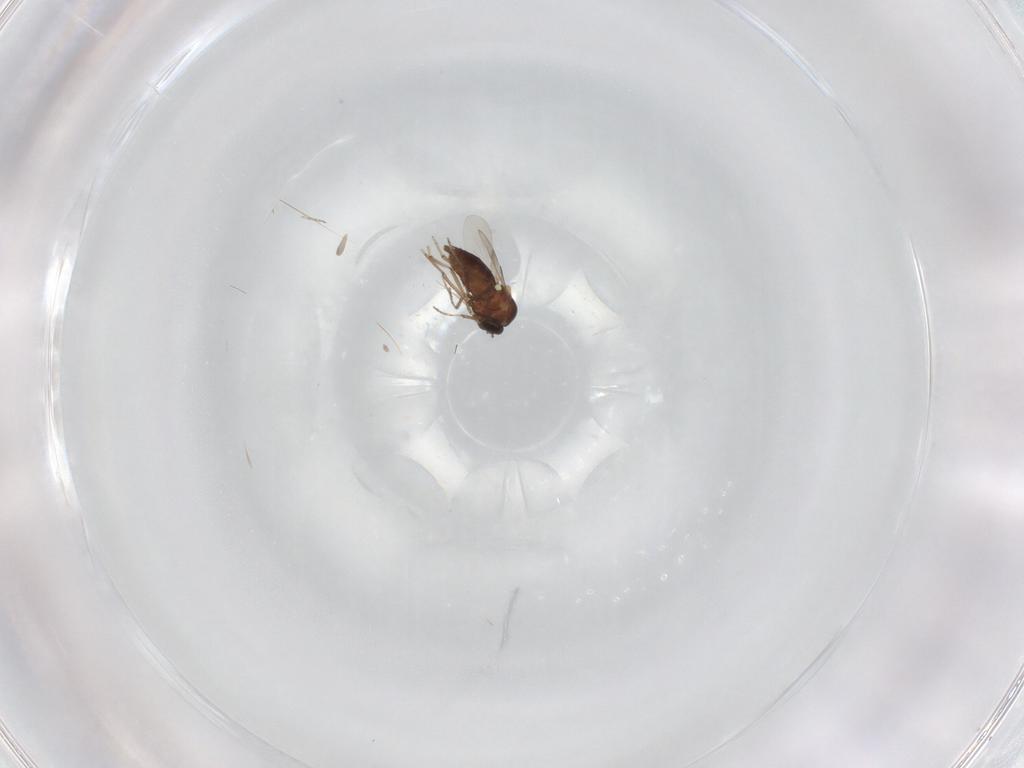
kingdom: Animalia
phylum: Arthropoda
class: Insecta
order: Diptera
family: Ceratopogonidae
